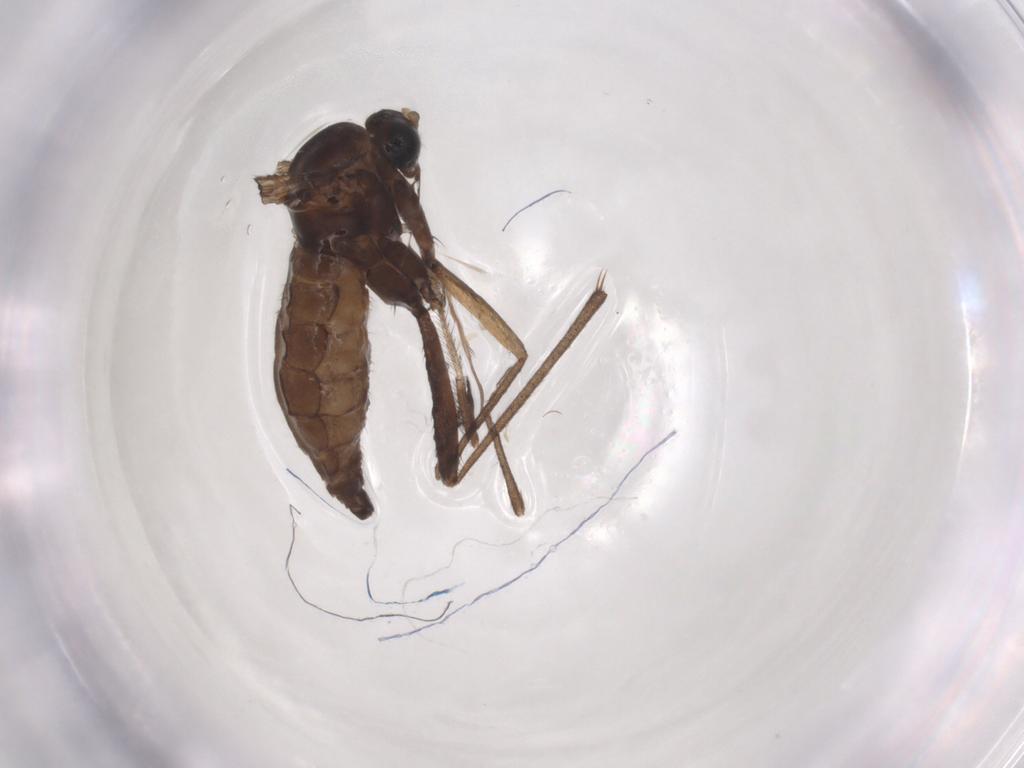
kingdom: Animalia
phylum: Arthropoda
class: Insecta
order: Diptera
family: Sciaridae
